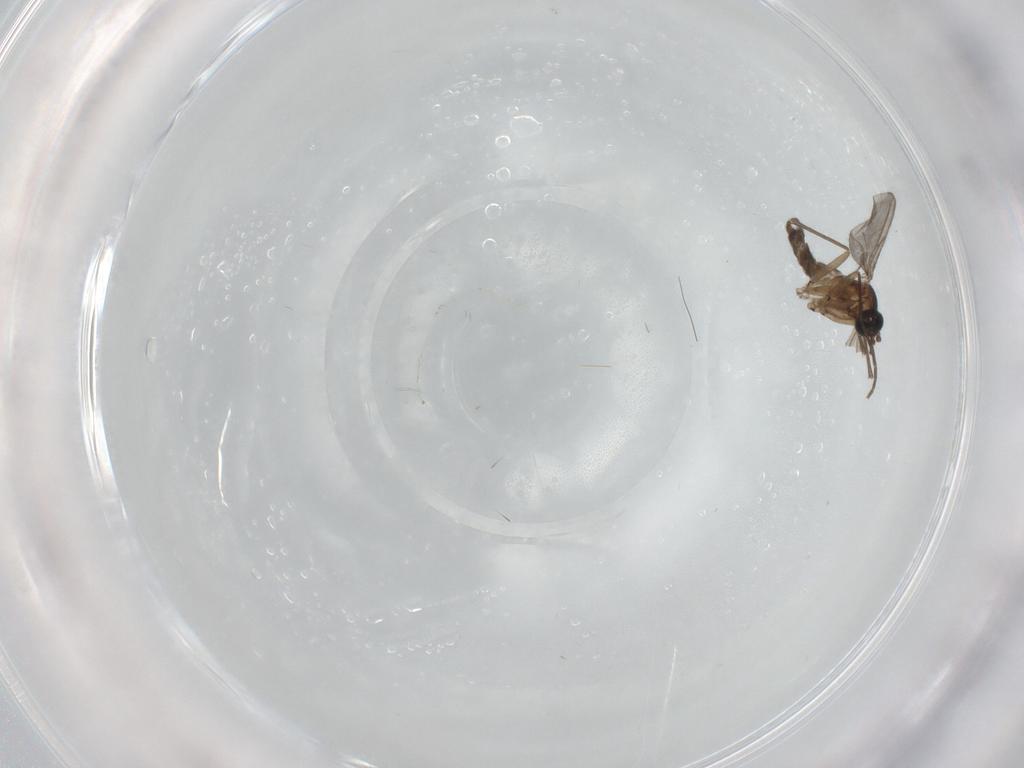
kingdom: Animalia
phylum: Arthropoda
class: Insecta
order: Diptera
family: Sciaridae
